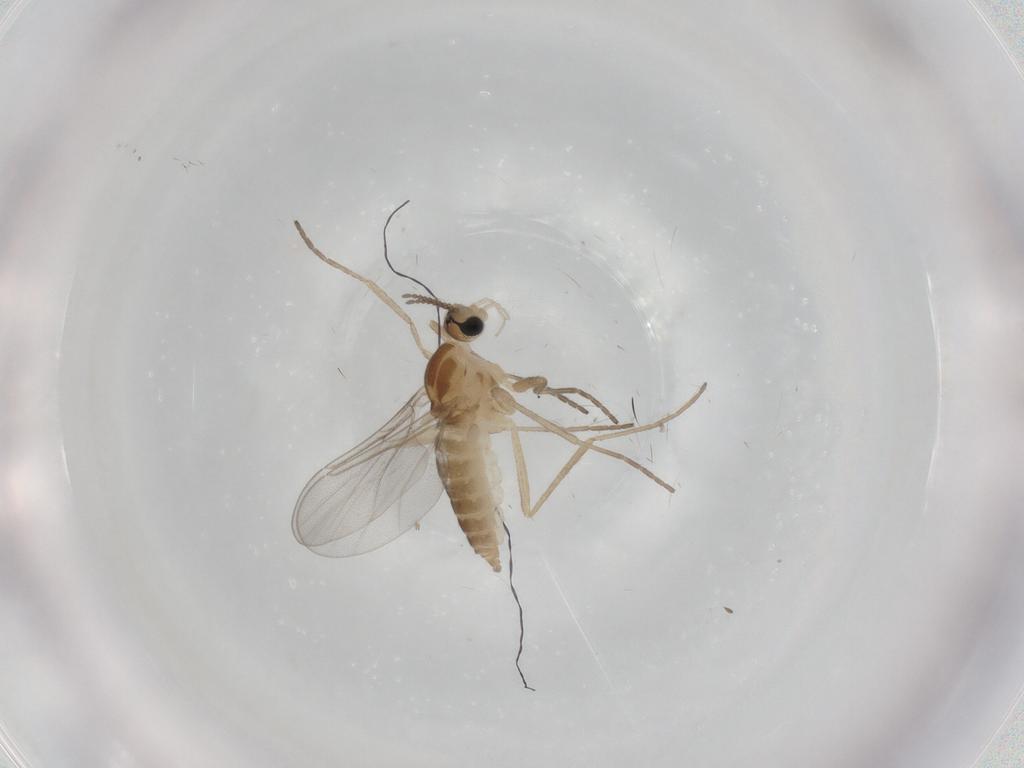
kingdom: Animalia
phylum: Arthropoda
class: Insecta
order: Diptera
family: Cecidomyiidae
